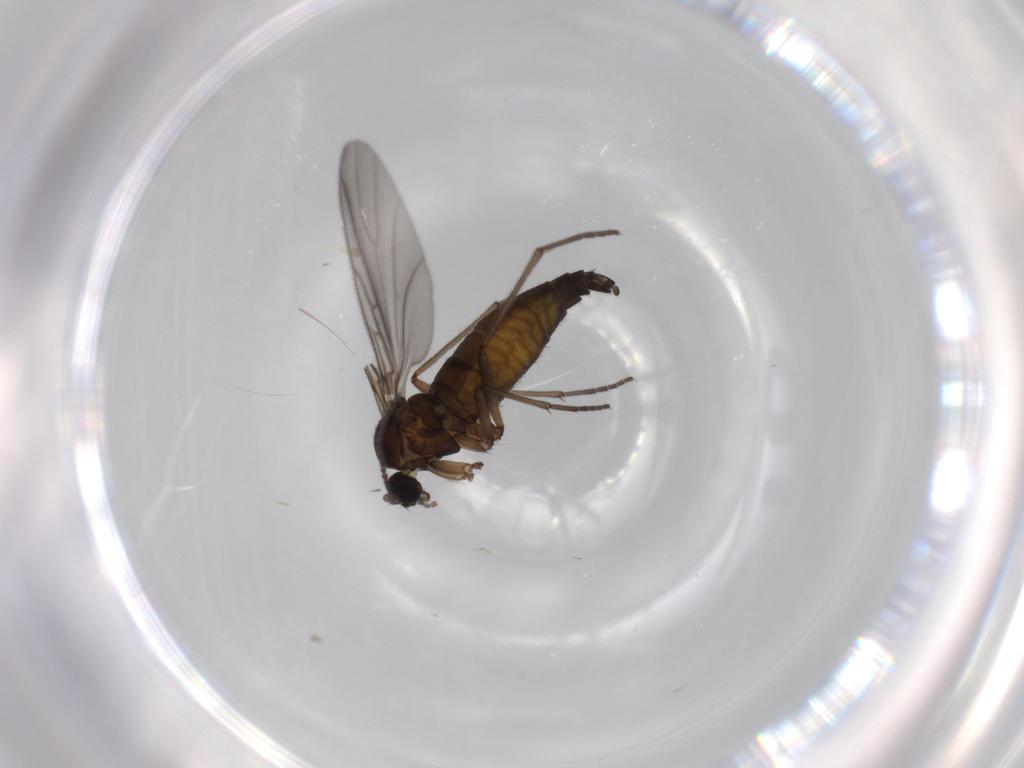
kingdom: Animalia
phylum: Arthropoda
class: Insecta
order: Diptera
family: Sciaridae
